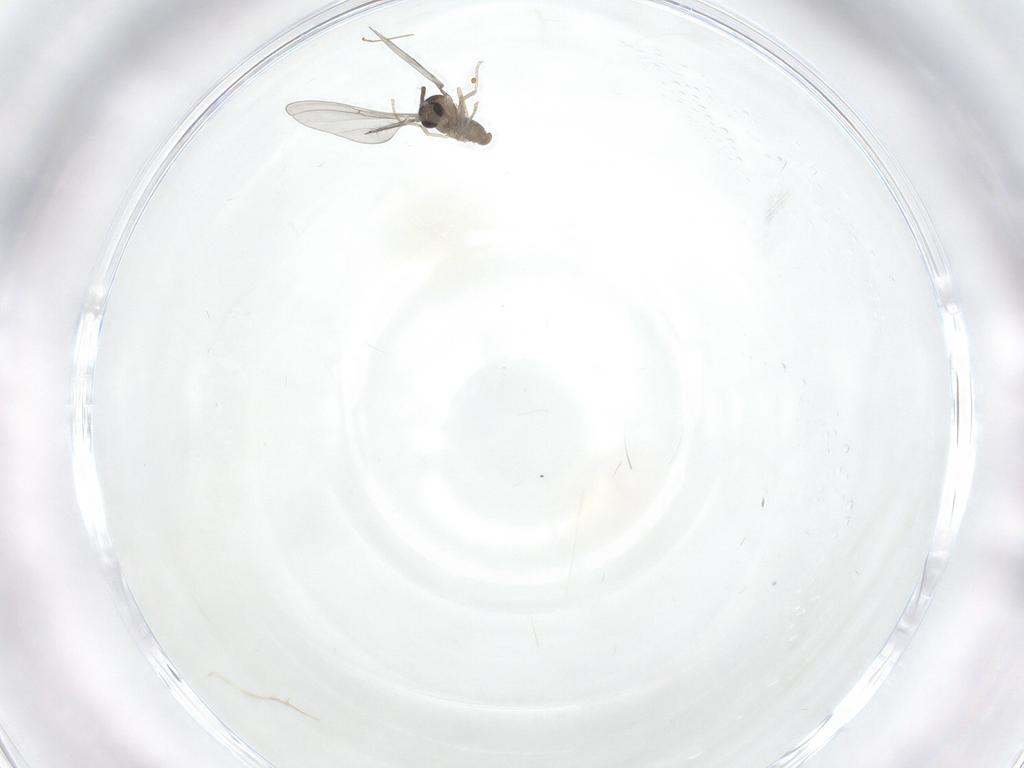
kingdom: Animalia
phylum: Arthropoda
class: Insecta
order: Diptera
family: Cecidomyiidae
